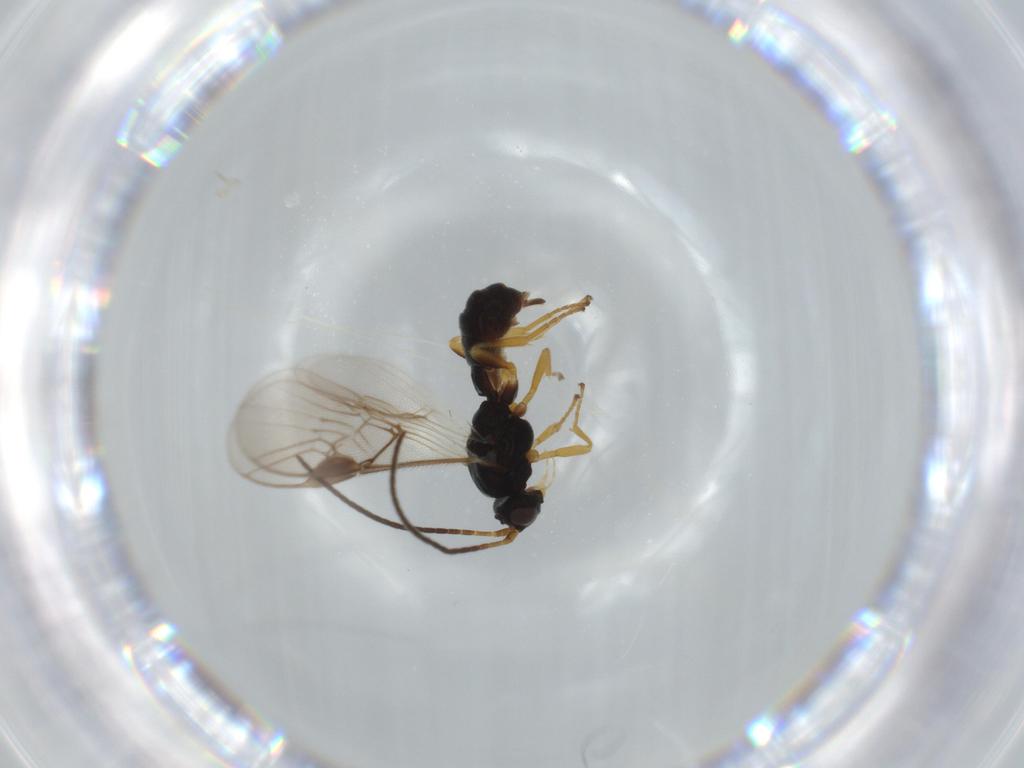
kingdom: Animalia
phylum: Arthropoda
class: Insecta
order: Hymenoptera
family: Braconidae
